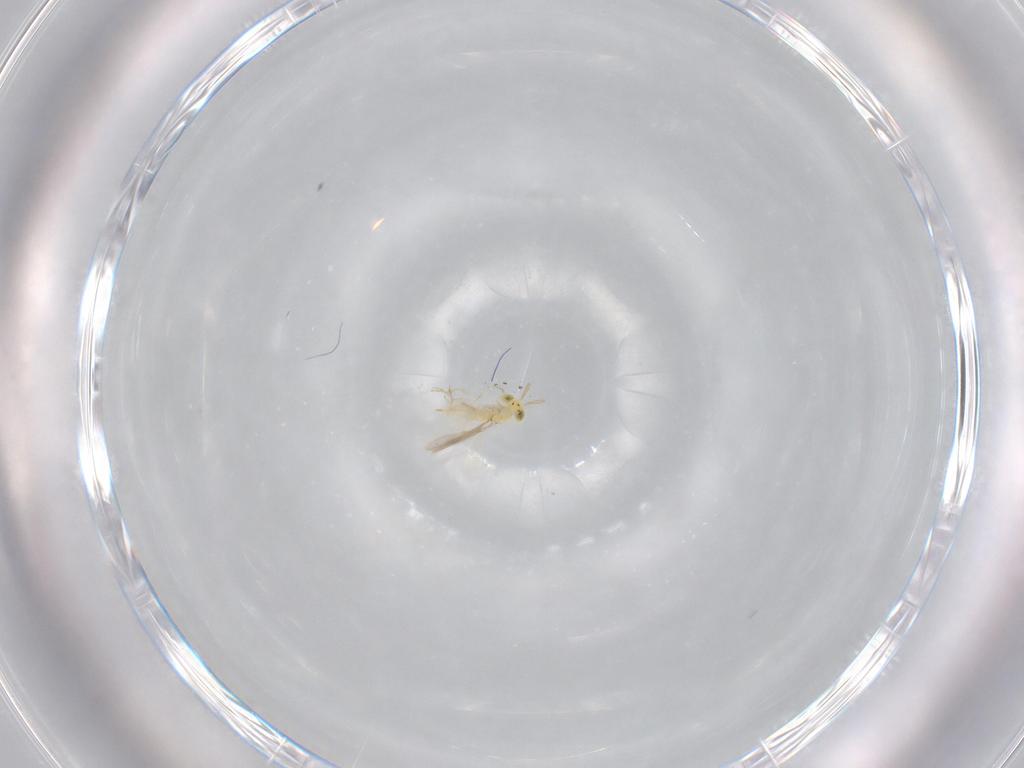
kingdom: Animalia
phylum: Arthropoda
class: Insecta
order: Hymenoptera
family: Aphelinidae
